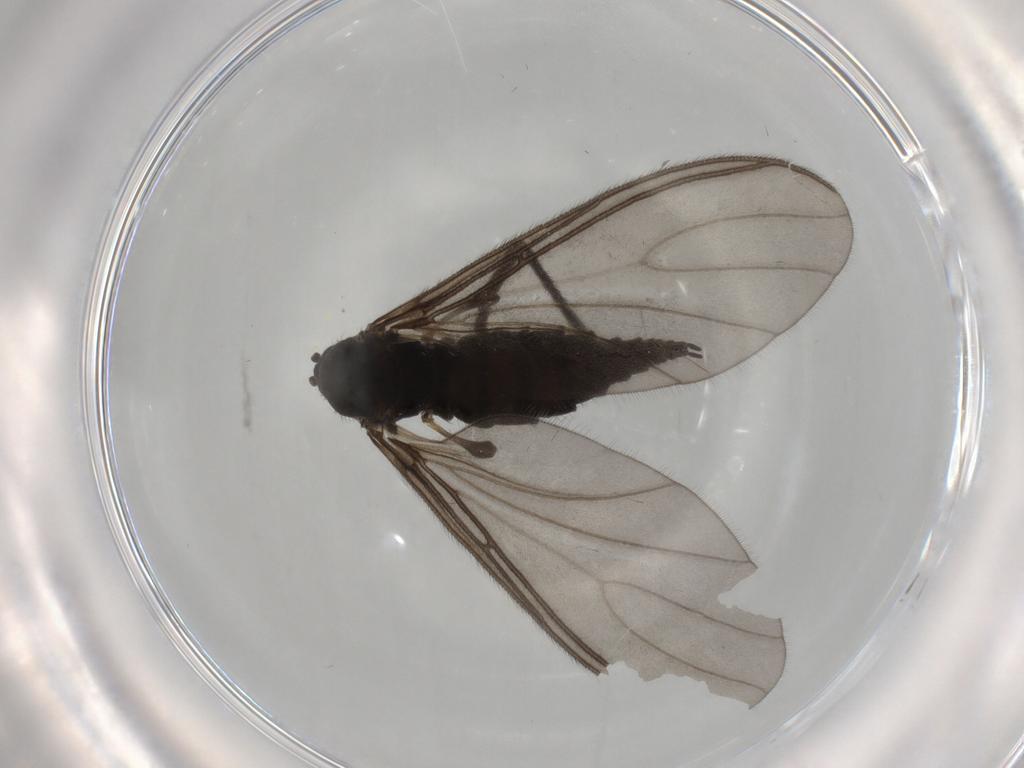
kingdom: Animalia
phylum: Arthropoda
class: Insecta
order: Diptera
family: Sciaridae
